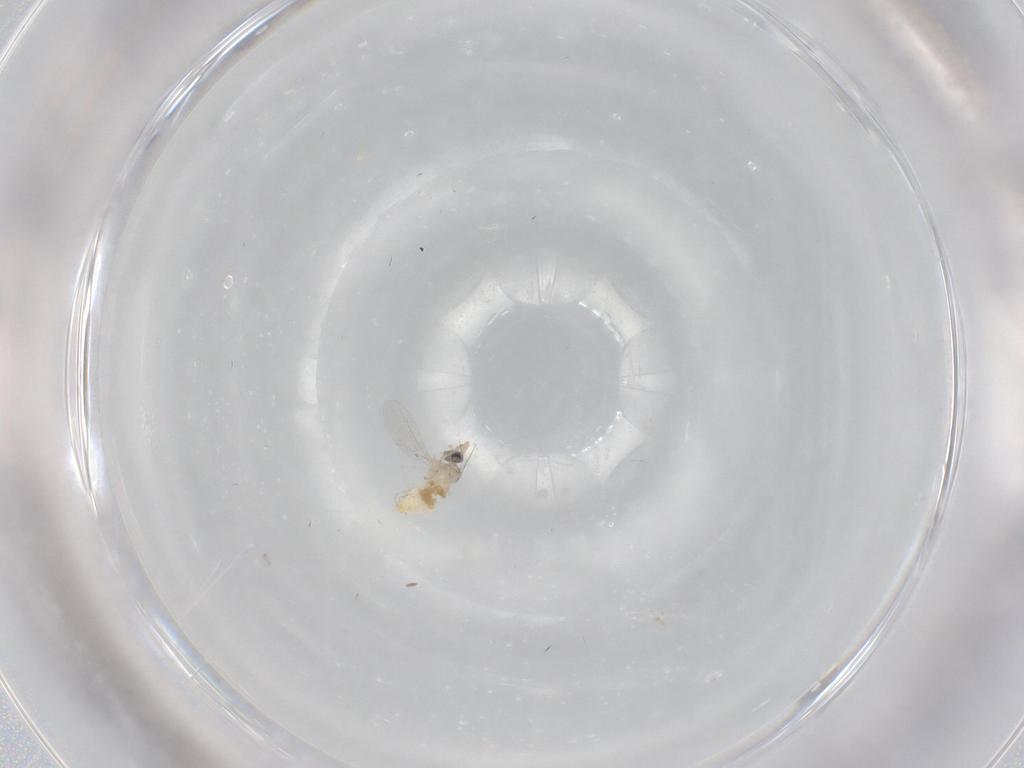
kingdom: Animalia
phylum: Arthropoda
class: Insecta
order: Diptera
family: Cecidomyiidae
